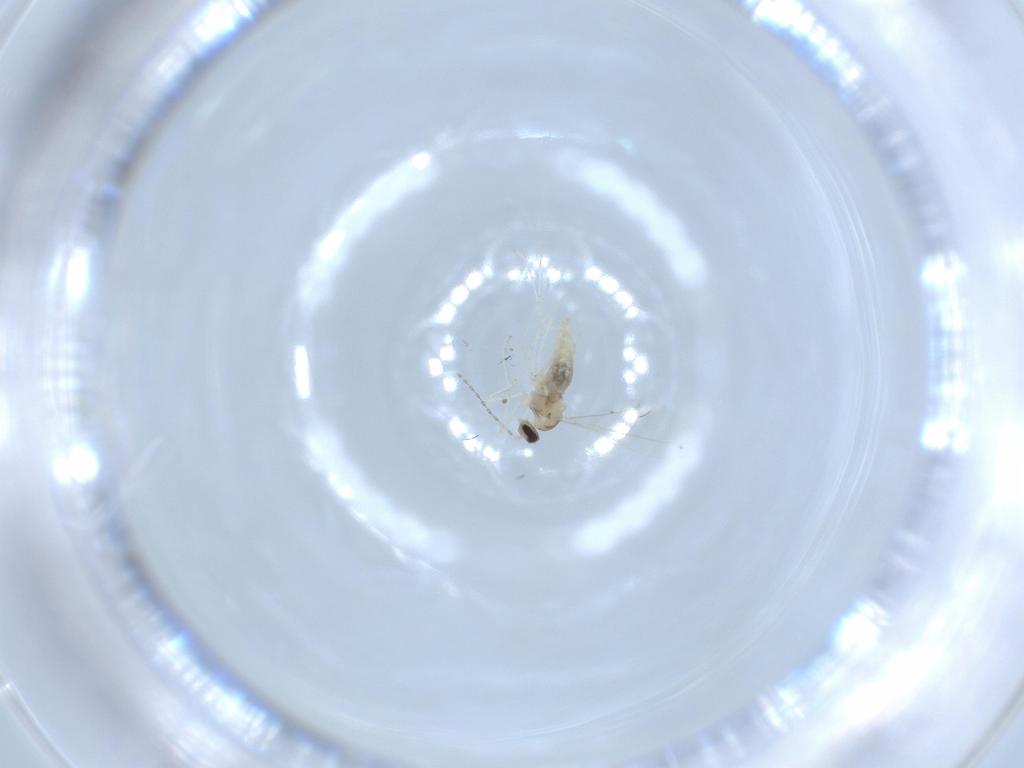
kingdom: Animalia
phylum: Arthropoda
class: Insecta
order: Diptera
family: Cecidomyiidae
